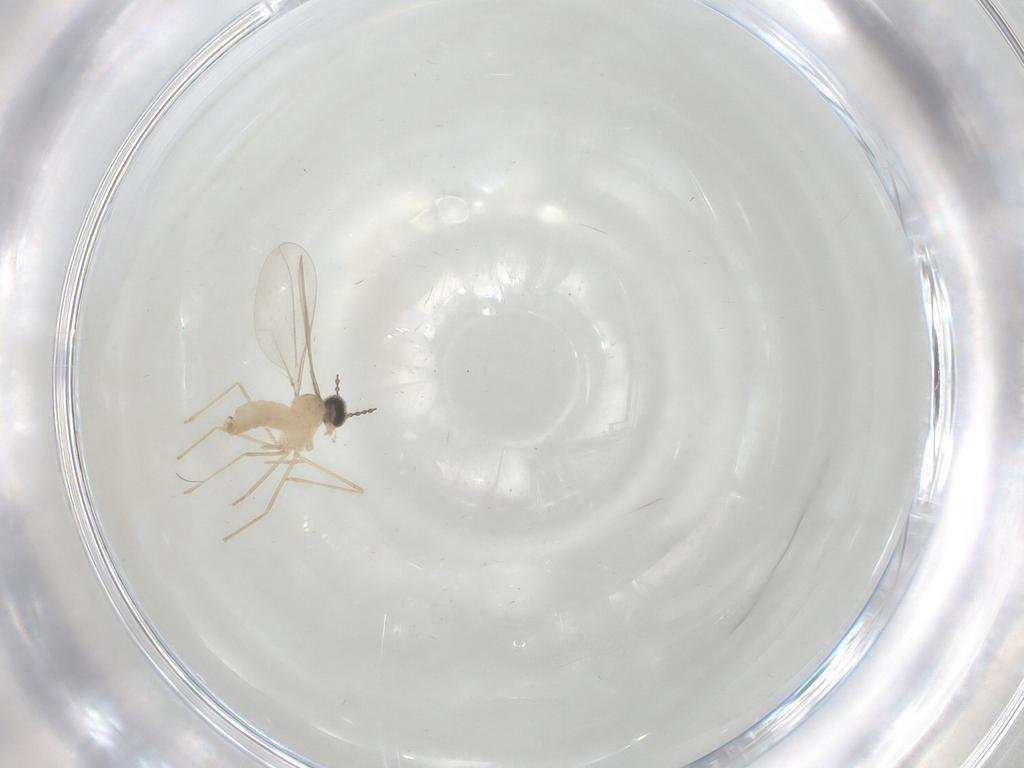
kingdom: Animalia
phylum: Arthropoda
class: Insecta
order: Diptera
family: Cecidomyiidae
